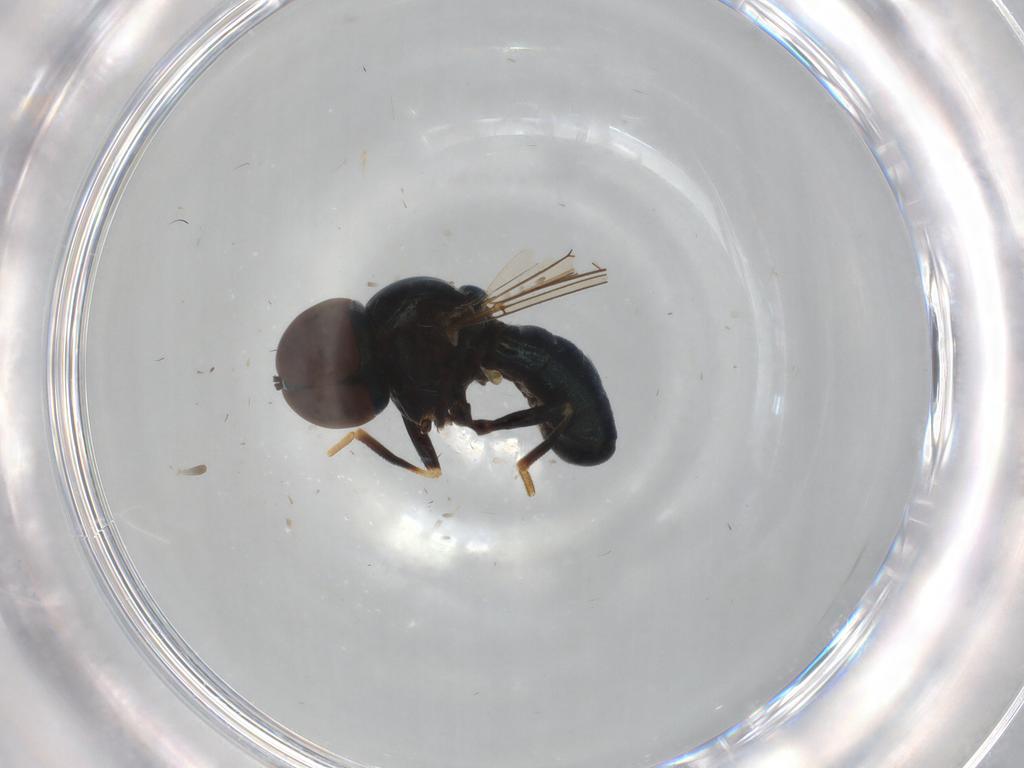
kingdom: Animalia
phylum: Arthropoda
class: Insecta
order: Diptera
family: Pipunculidae
